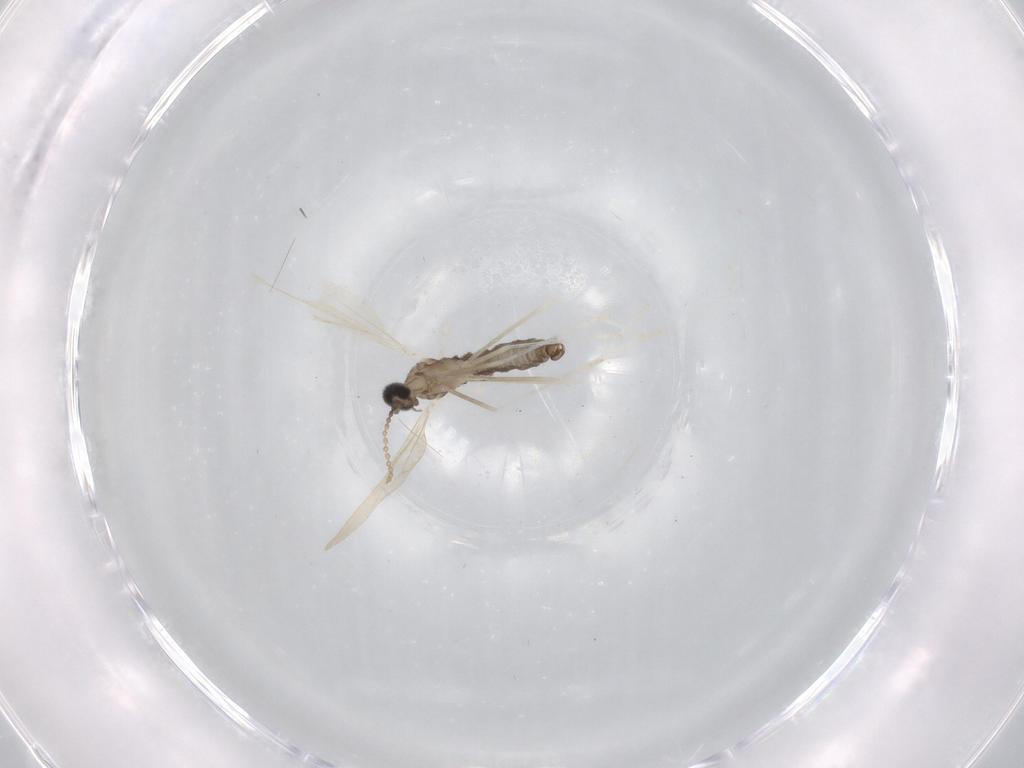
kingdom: Animalia
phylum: Arthropoda
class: Insecta
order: Diptera
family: Cecidomyiidae
